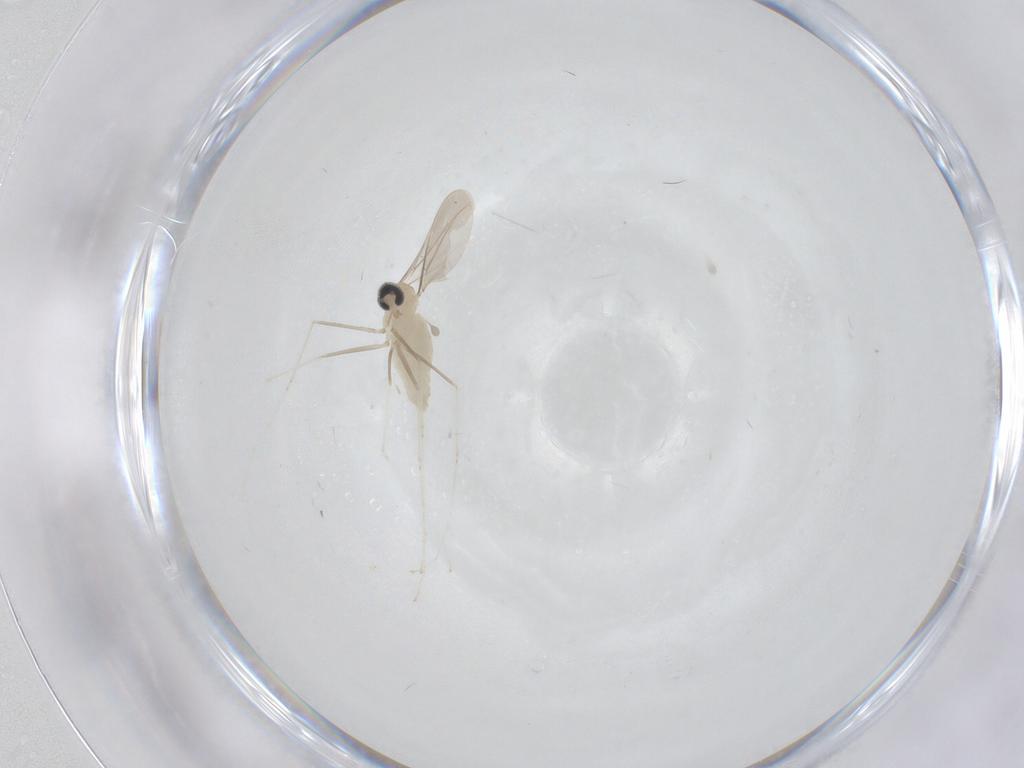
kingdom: Animalia
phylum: Arthropoda
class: Insecta
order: Diptera
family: Cecidomyiidae
